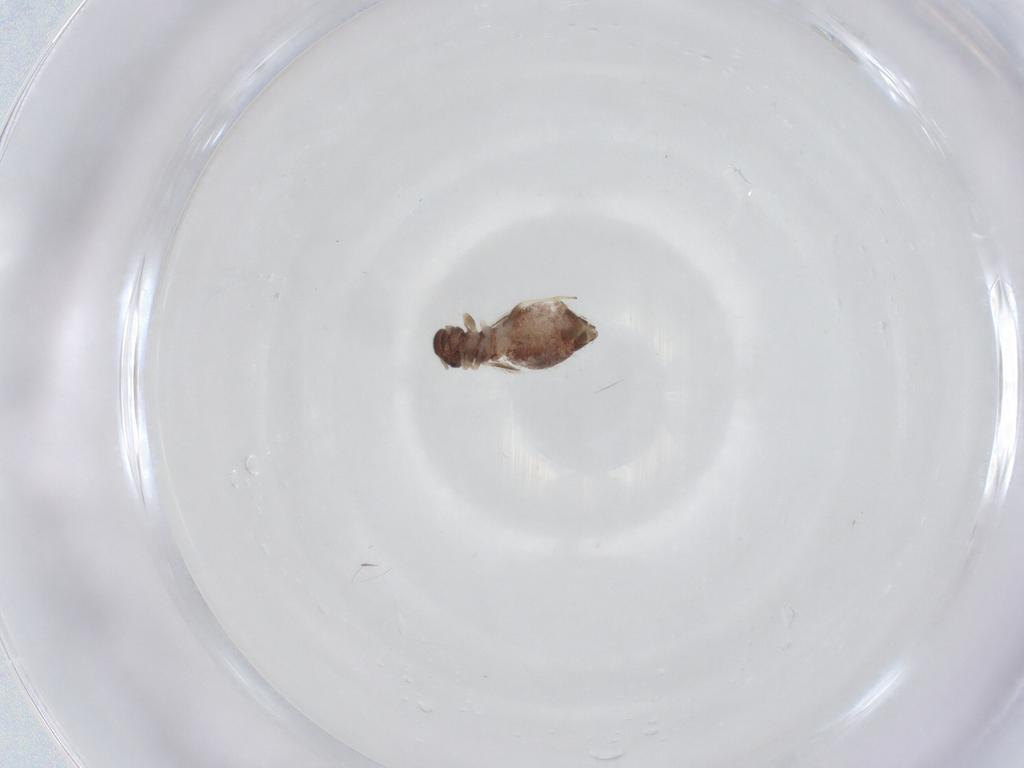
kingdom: Animalia
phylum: Arthropoda
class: Insecta
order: Psocodea
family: Archipsocidae
